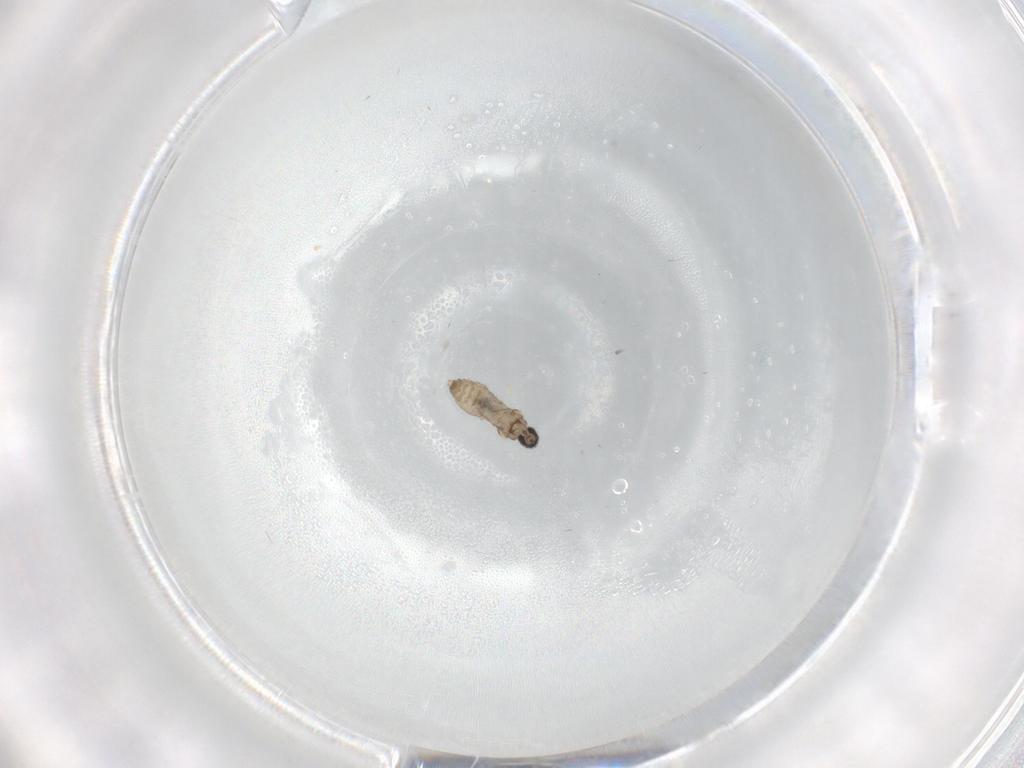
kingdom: Animalia
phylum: Arthropoda
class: Insecta
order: Diptera
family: Cecidomyiidae
